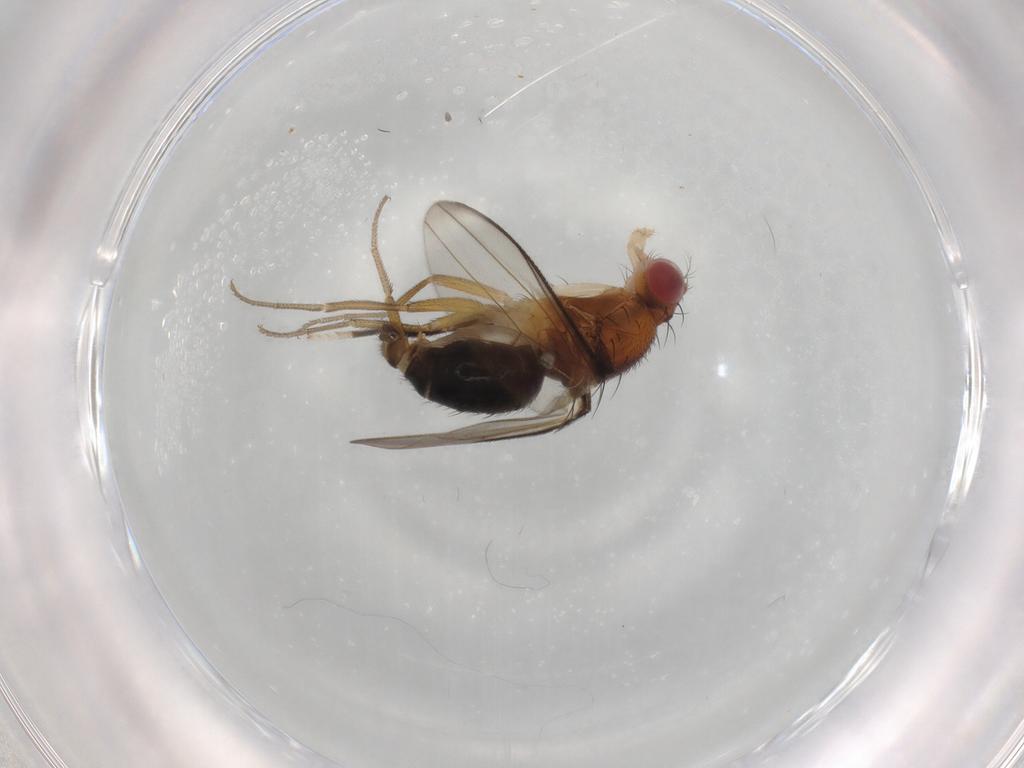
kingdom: Animalia
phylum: Arthropoda
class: Insecta
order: Diptera
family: Drosophilidae
